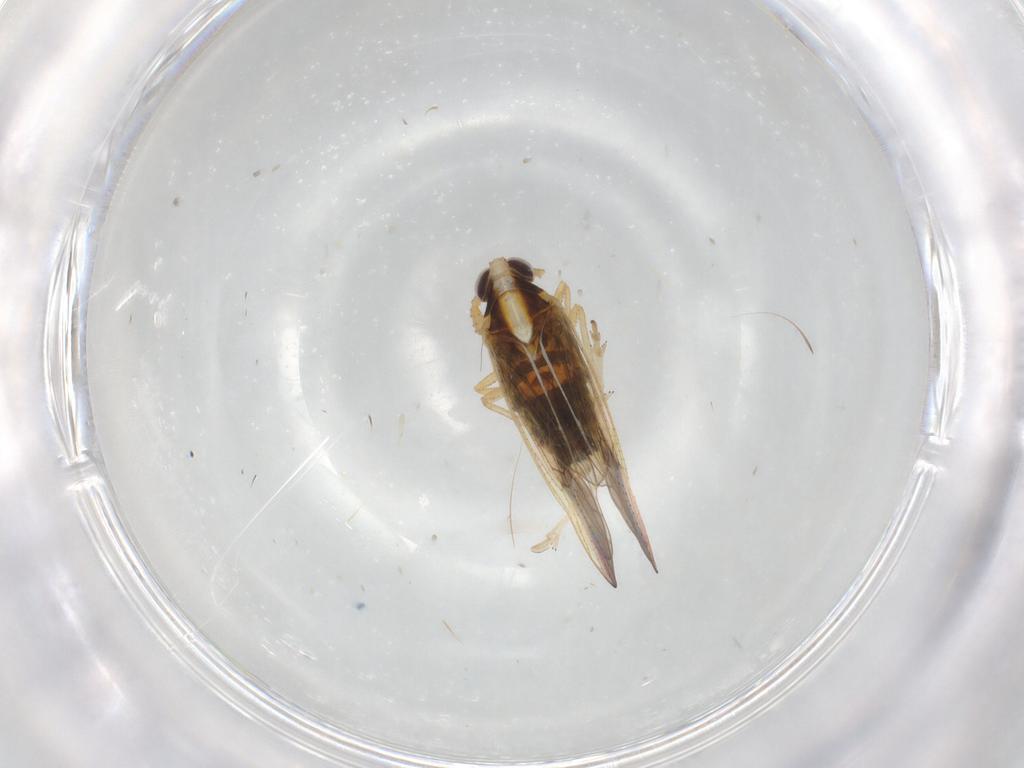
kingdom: Animalia
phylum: Arthropoda
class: Insecta
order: Hemiptera
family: Delphacidae
